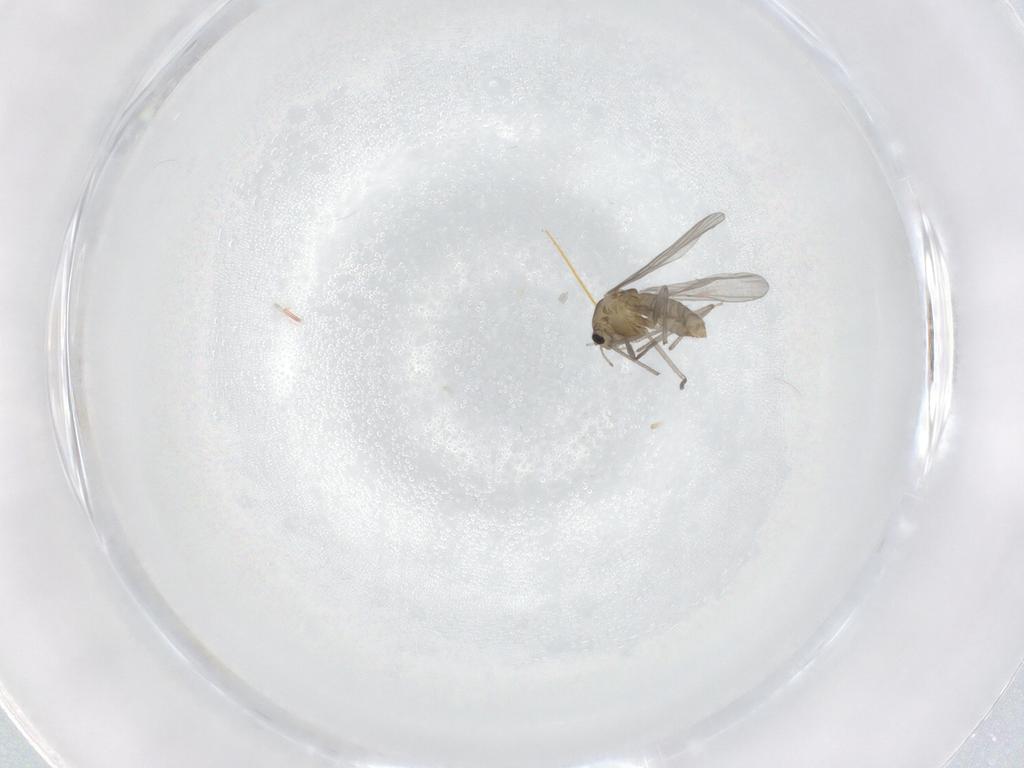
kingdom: Animalia
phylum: Arthropoda
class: Insecta
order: Diptera
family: Chironomidae
